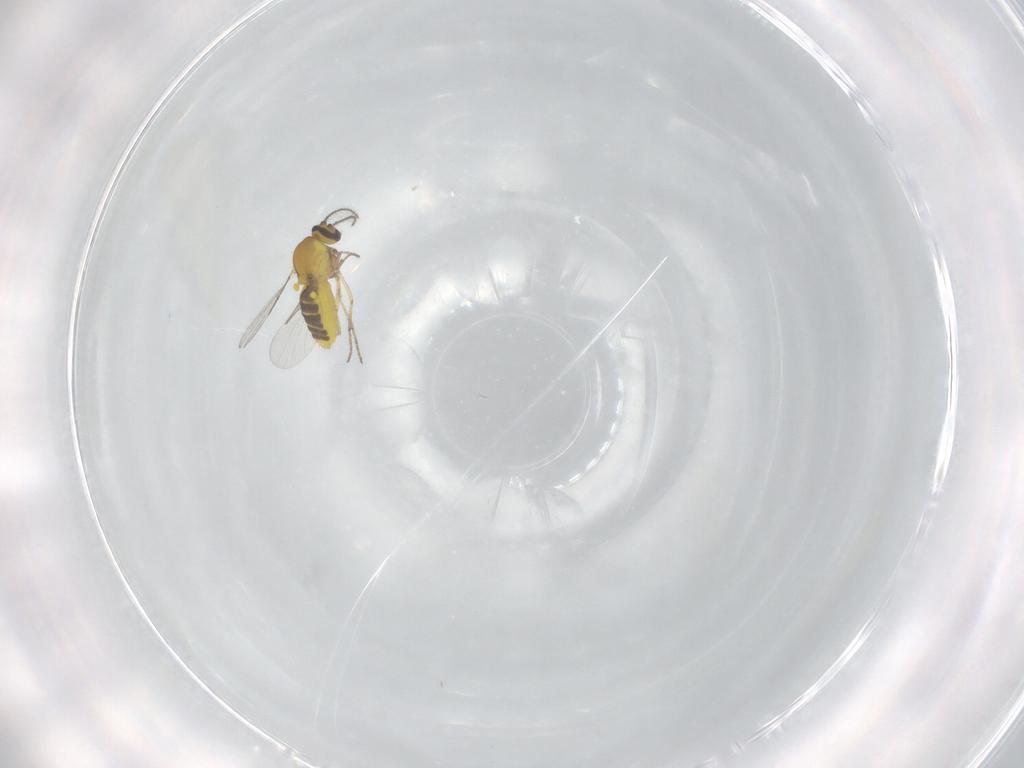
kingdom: Animalia
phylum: Arthropoda
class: Insecta
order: Diptera
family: Ceratopogonidae
